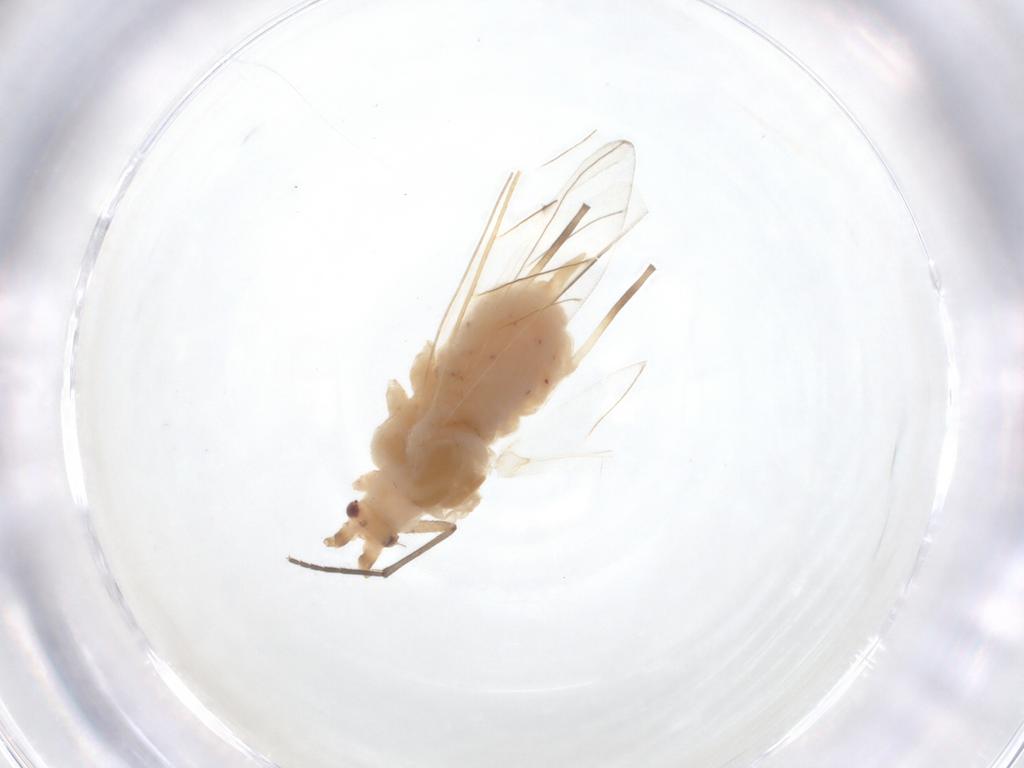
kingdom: Animalia
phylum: Arthropoda
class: Insecta
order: Hemiptera
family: Aphididae
